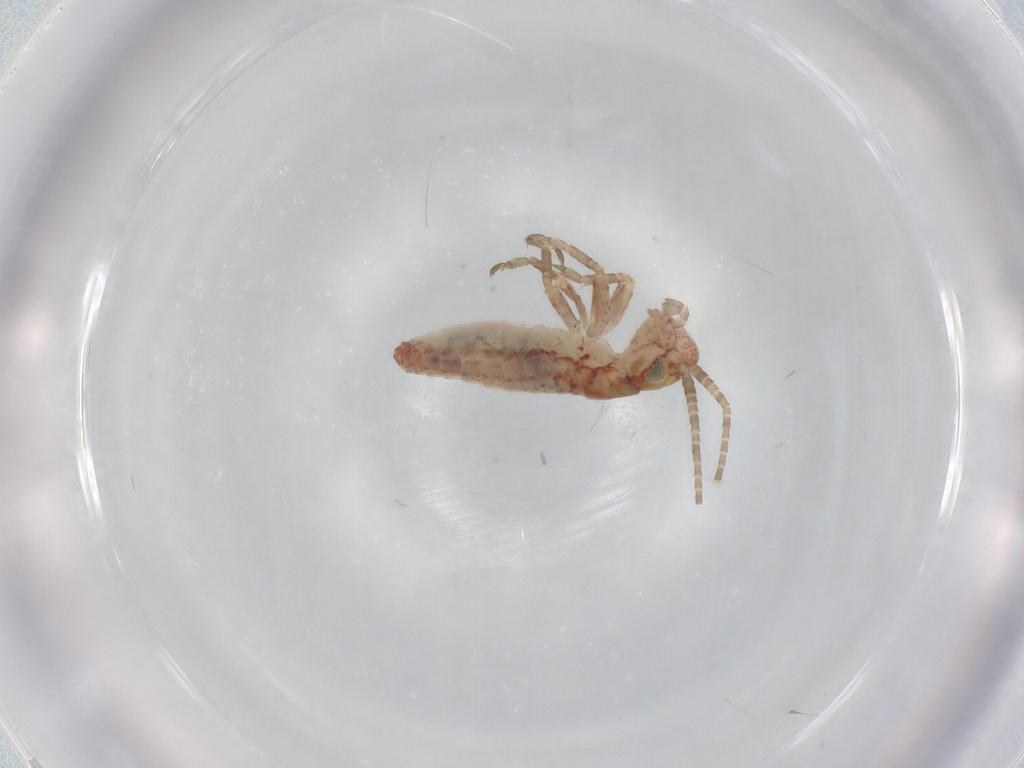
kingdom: Animalia
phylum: Arthropoda
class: Insecta
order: Orthoptera
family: Mogoplistidae
